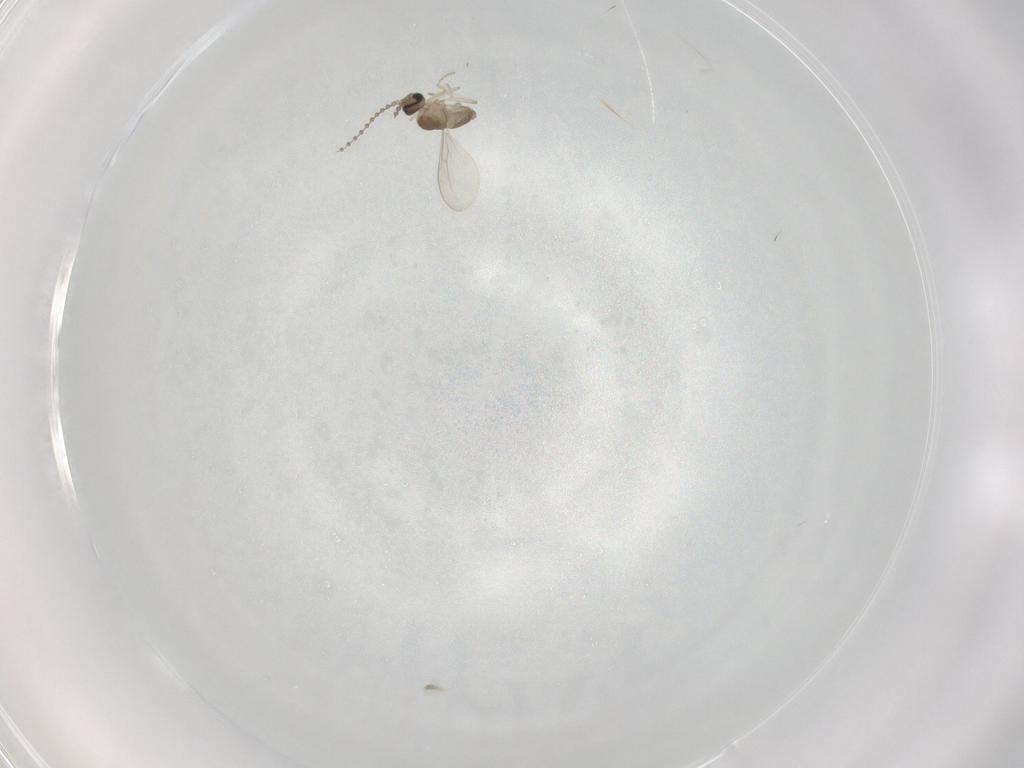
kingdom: Animalia
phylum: Arthropoda
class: Insecta
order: Diptera
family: Cecidomyiidae
